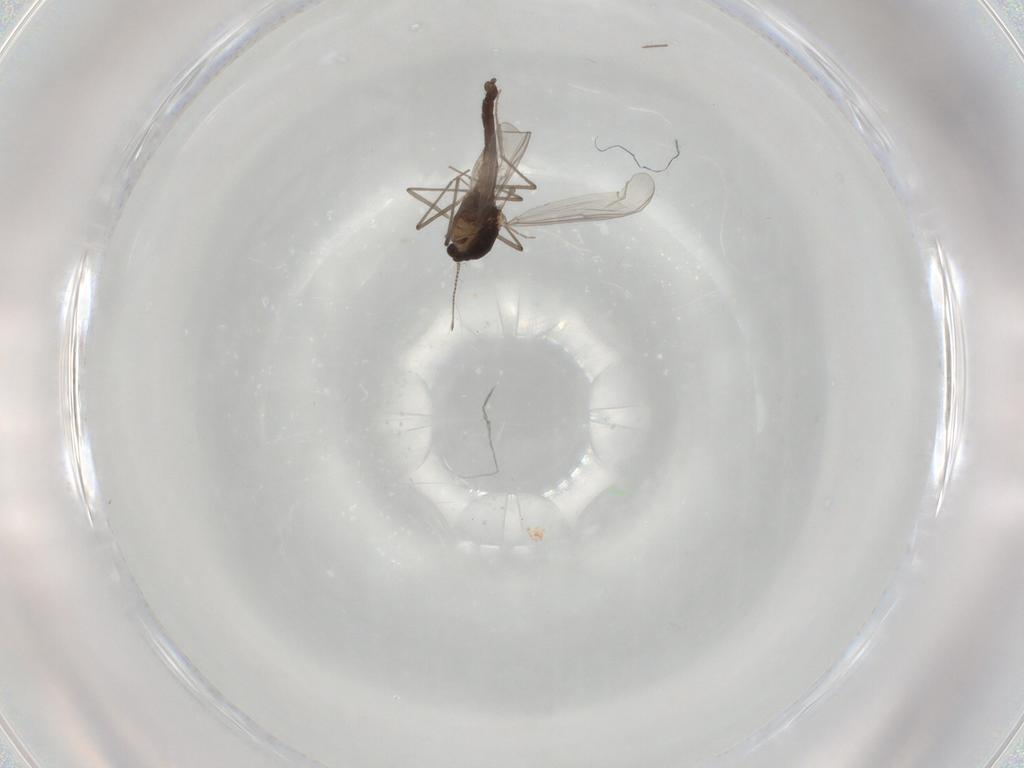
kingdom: Animalia
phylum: Arthropoda
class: Insecta
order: Diptera
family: Chironomidae
